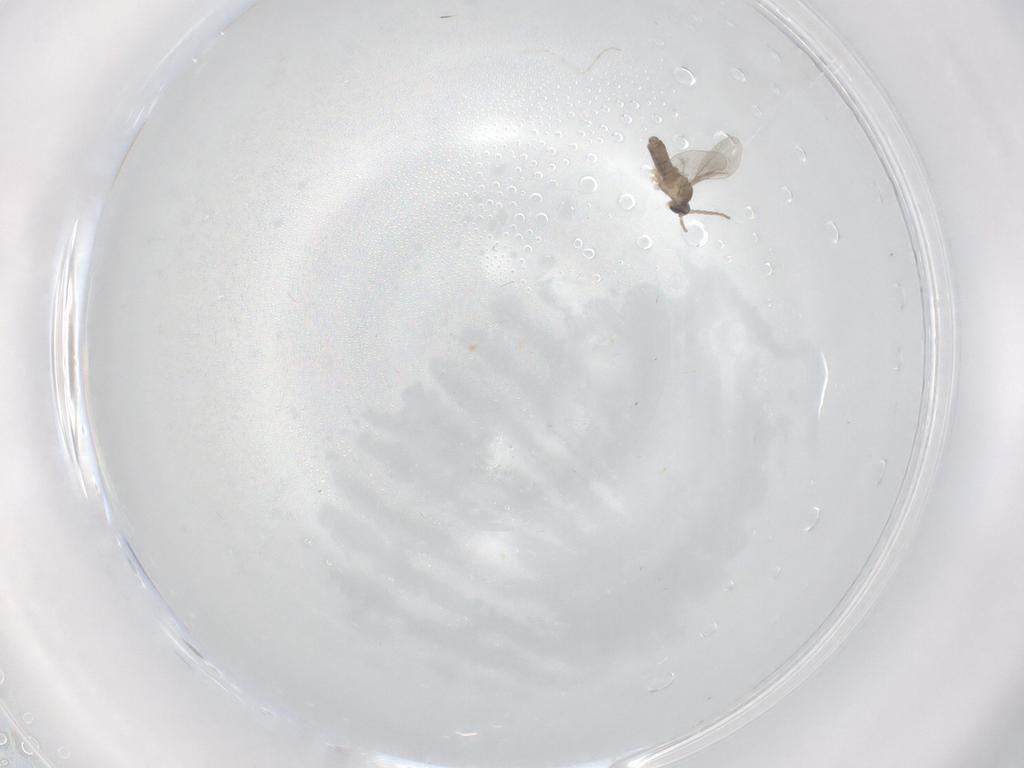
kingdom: Animalia
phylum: Arthropoda
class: Insecta
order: Diptera
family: Cecidomyiidae
